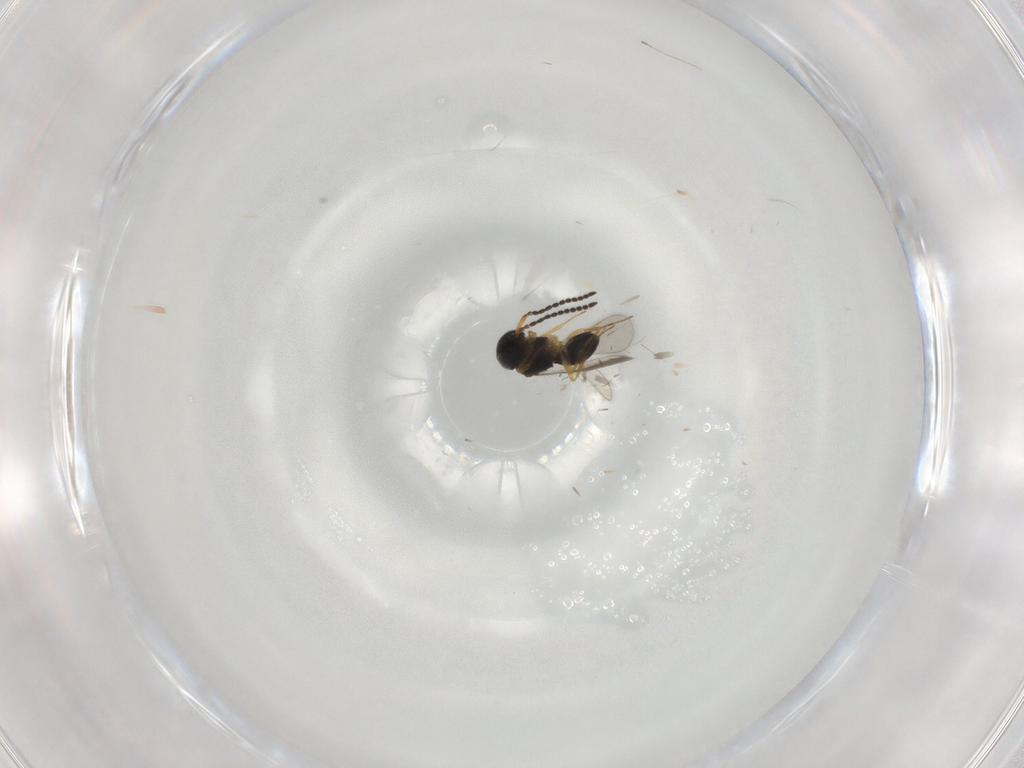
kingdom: Animalia
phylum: Arthropoda
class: Insecta
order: Hymenoptera
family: Scelionidae
